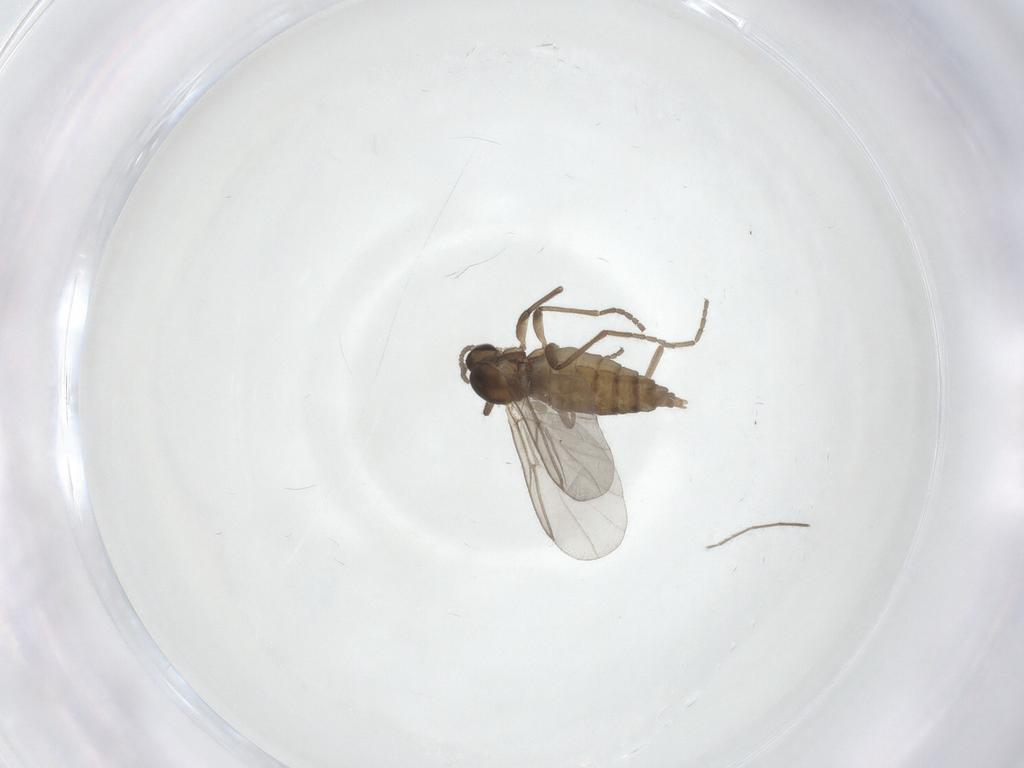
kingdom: Animalia
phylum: Arthropoda
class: Insecta
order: Diptera
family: Cecidomyiidae
